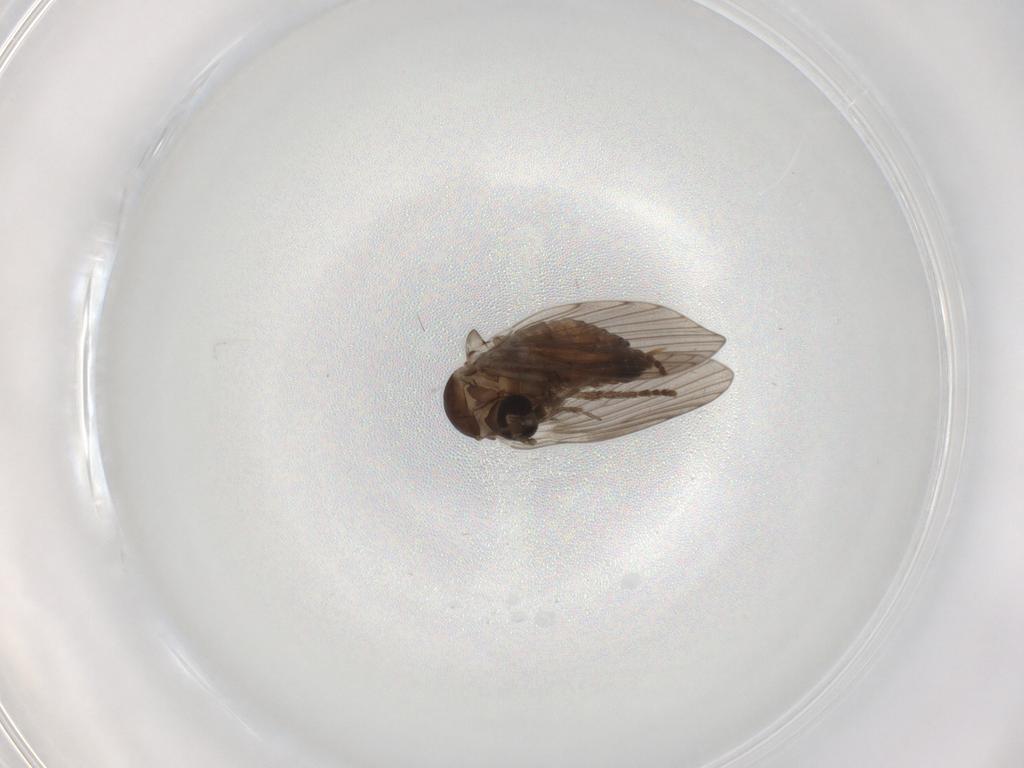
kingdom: Animalia
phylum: Arthropoda
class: Insecta
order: Diptera
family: Psychodidae
